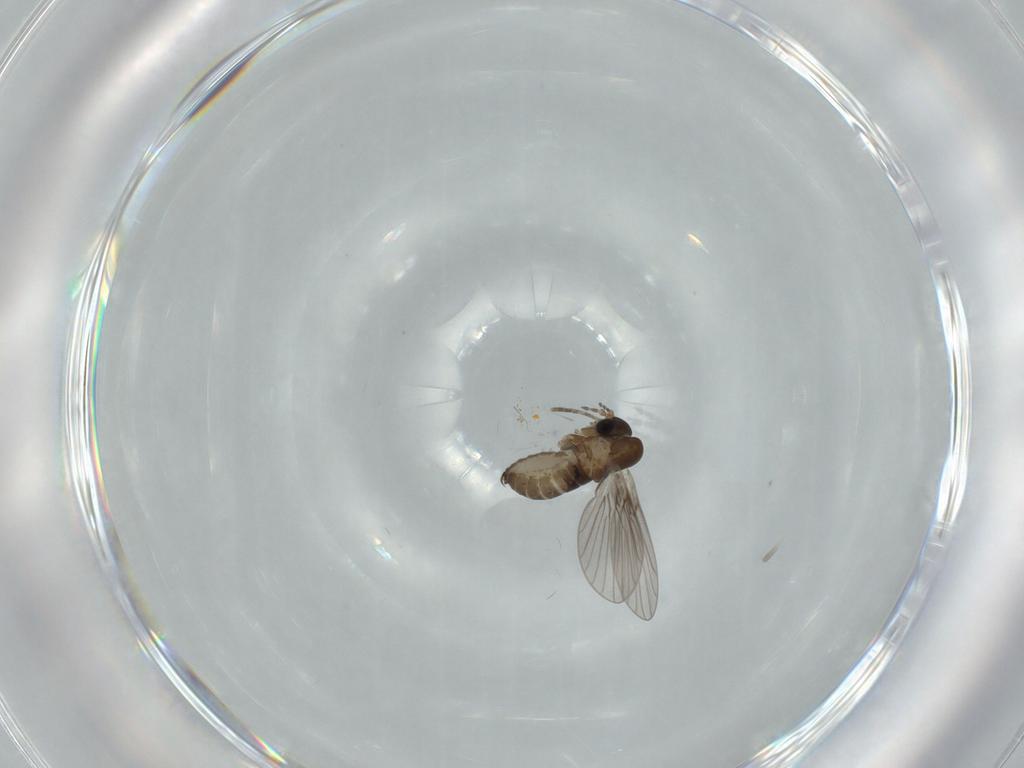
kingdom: Animalia
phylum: Arthropoda
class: Insecta
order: Diptera
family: Psychodidae
